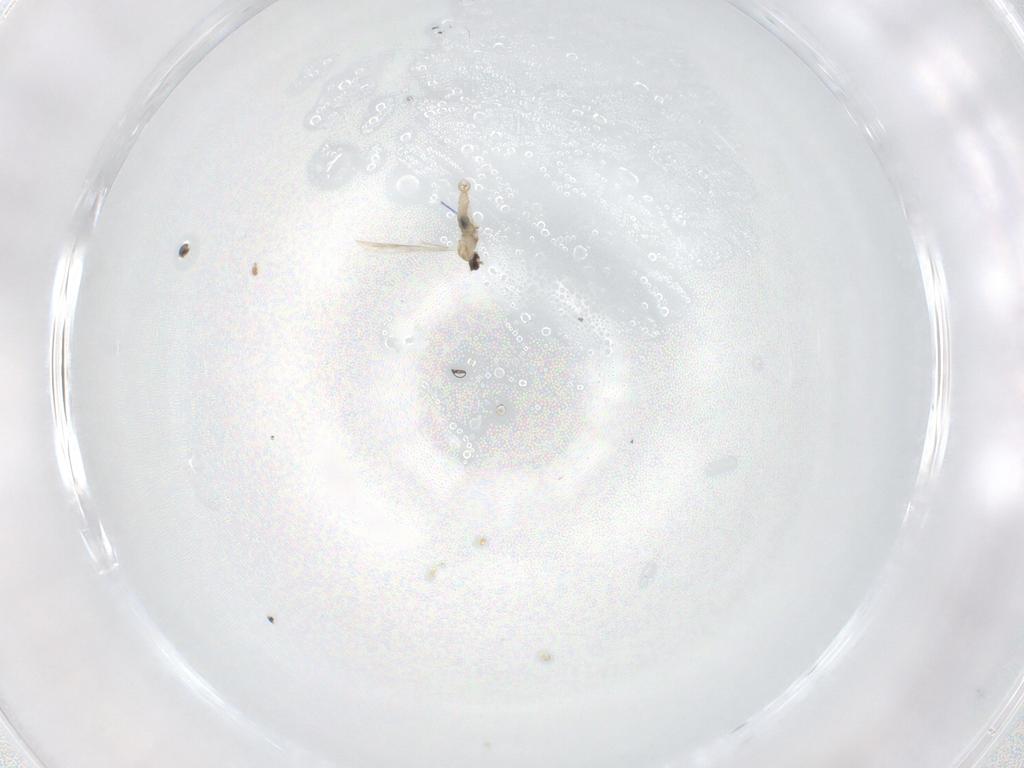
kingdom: Animalia
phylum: Arthropoda
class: Insecta
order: Diptera
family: Cecidomyiidae
